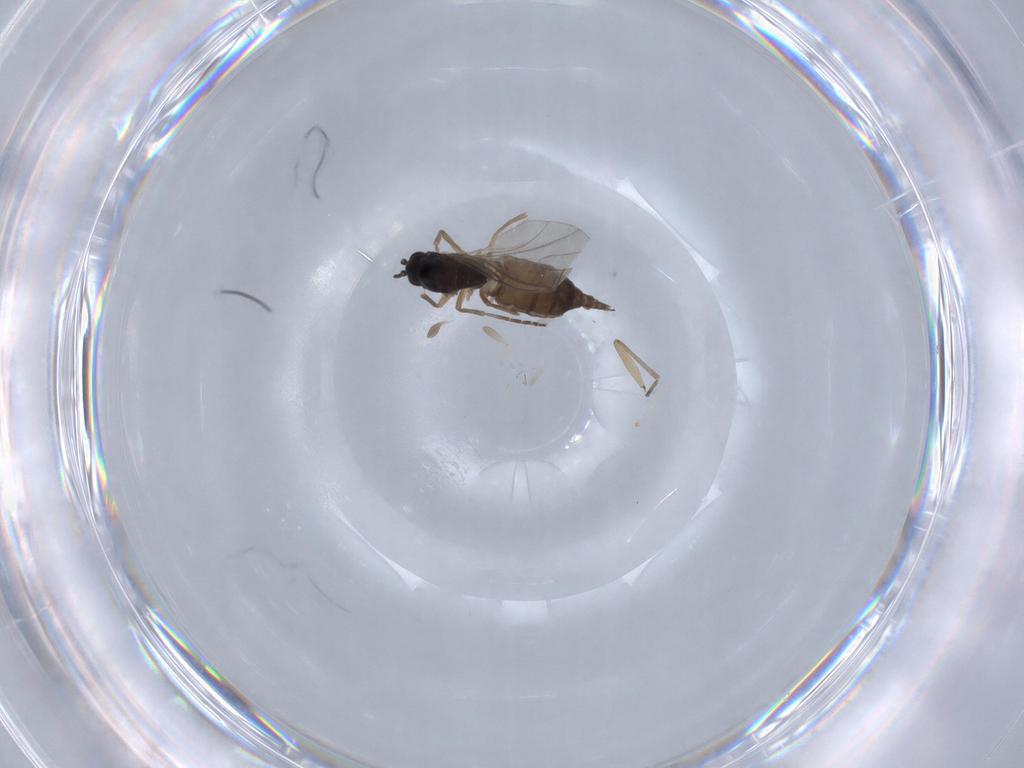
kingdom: Animalia
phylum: Arthropoda
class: Insecta
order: Diptera
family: Sciaridae
